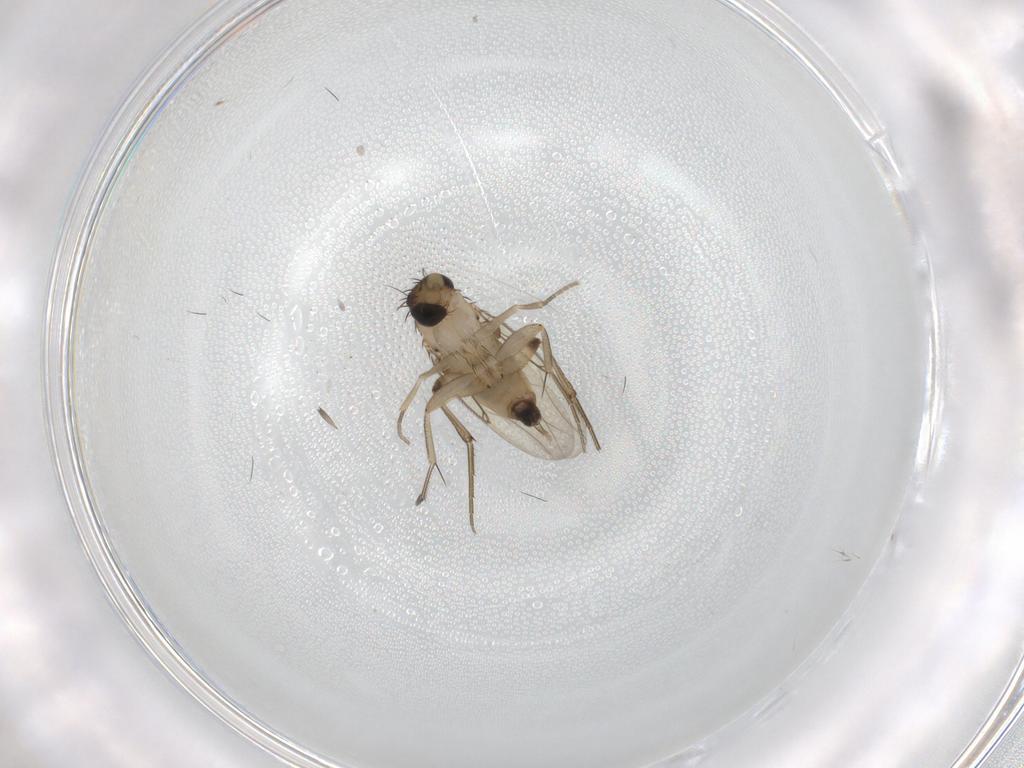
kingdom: Animalia
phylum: Arthropoda
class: Insecta
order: Diptera
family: Phoridae
